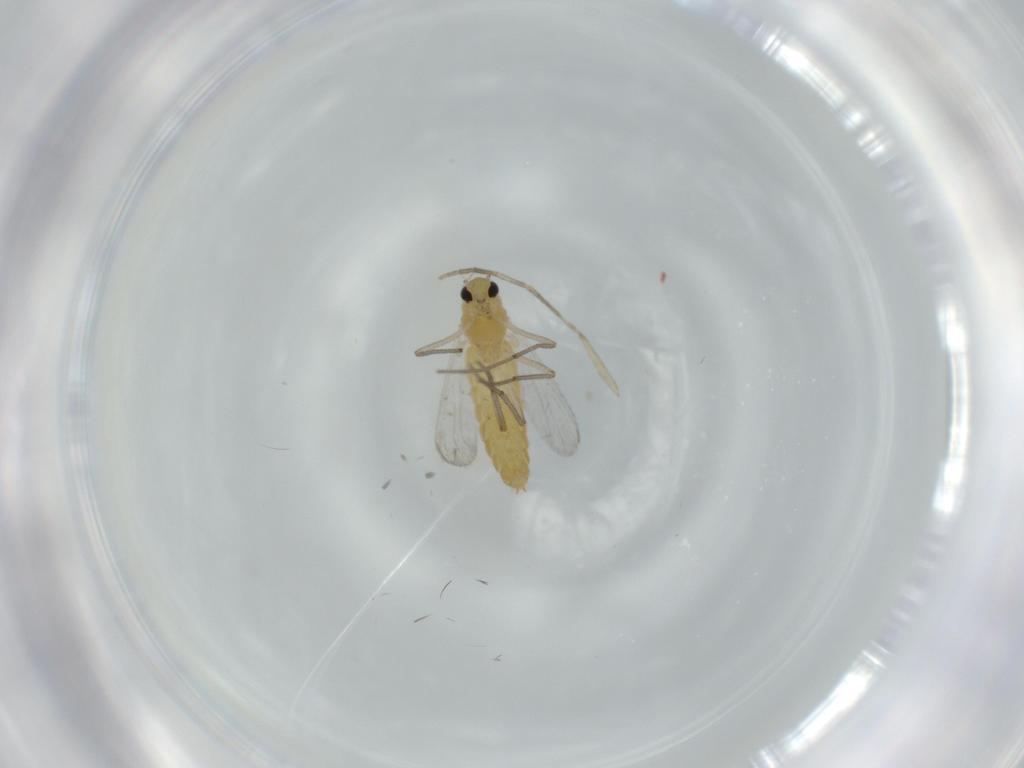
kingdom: Animalia
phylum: Arthropoda
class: Insecta
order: Diptera
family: Chironomidae
